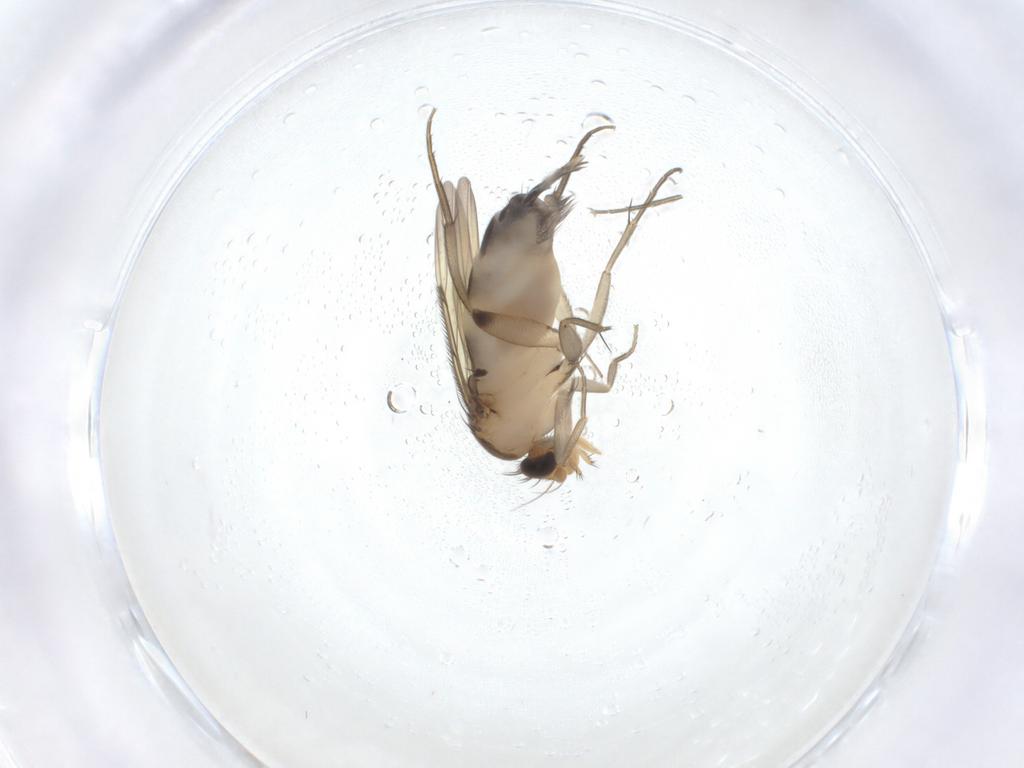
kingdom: Animalia
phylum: Arthropoda
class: Insecta
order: Diptera
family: Phoridae
